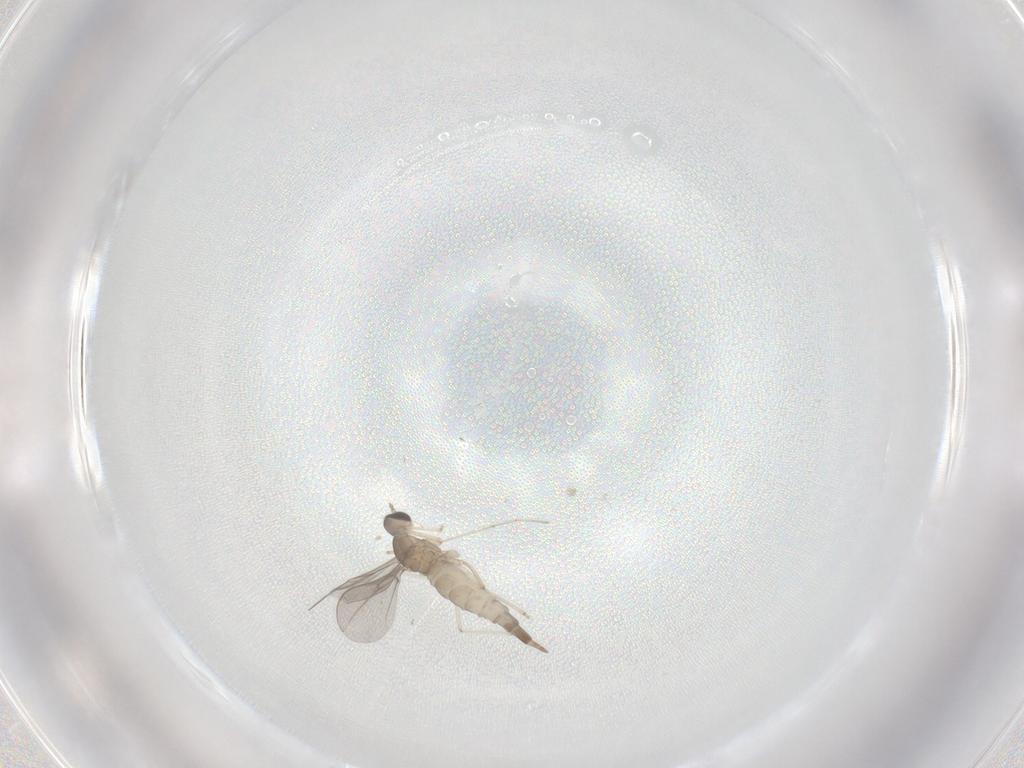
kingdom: Animalia
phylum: Arthropoda
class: Insecta
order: Diptera
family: Cecidomyiidae
